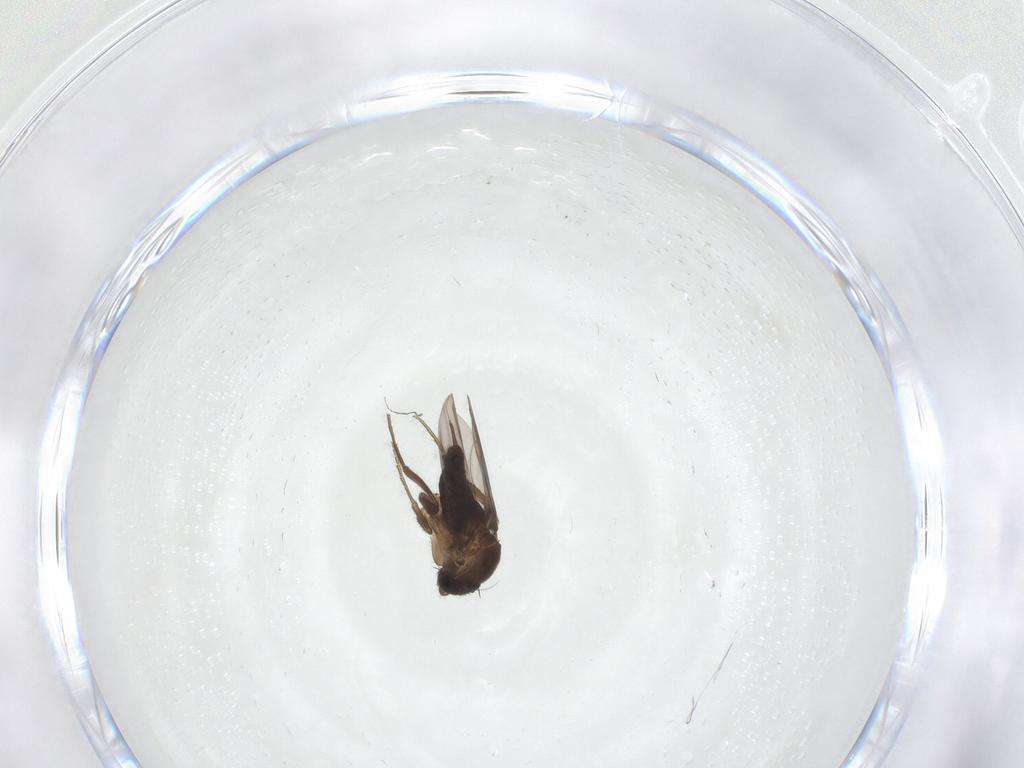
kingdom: Animalia
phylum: Arthropoda
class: Insecta
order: Diptera
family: Phoridae
